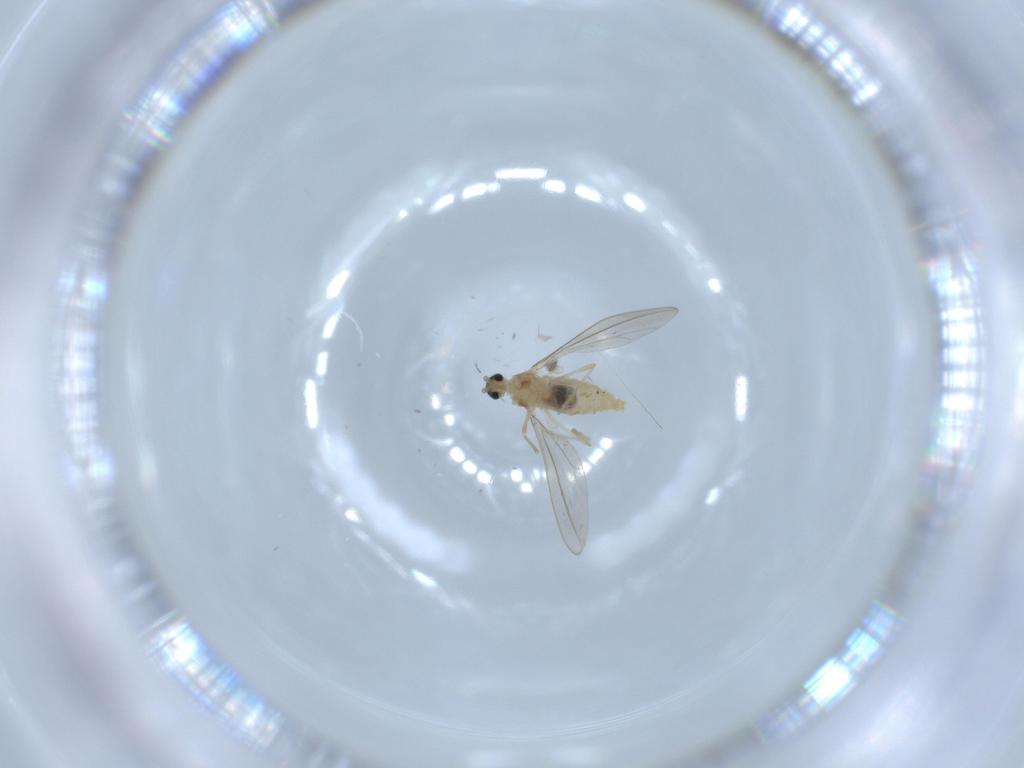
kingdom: Animalia
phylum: Arthropoda
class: Insecta
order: Diptera
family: Cecidomyiidae
